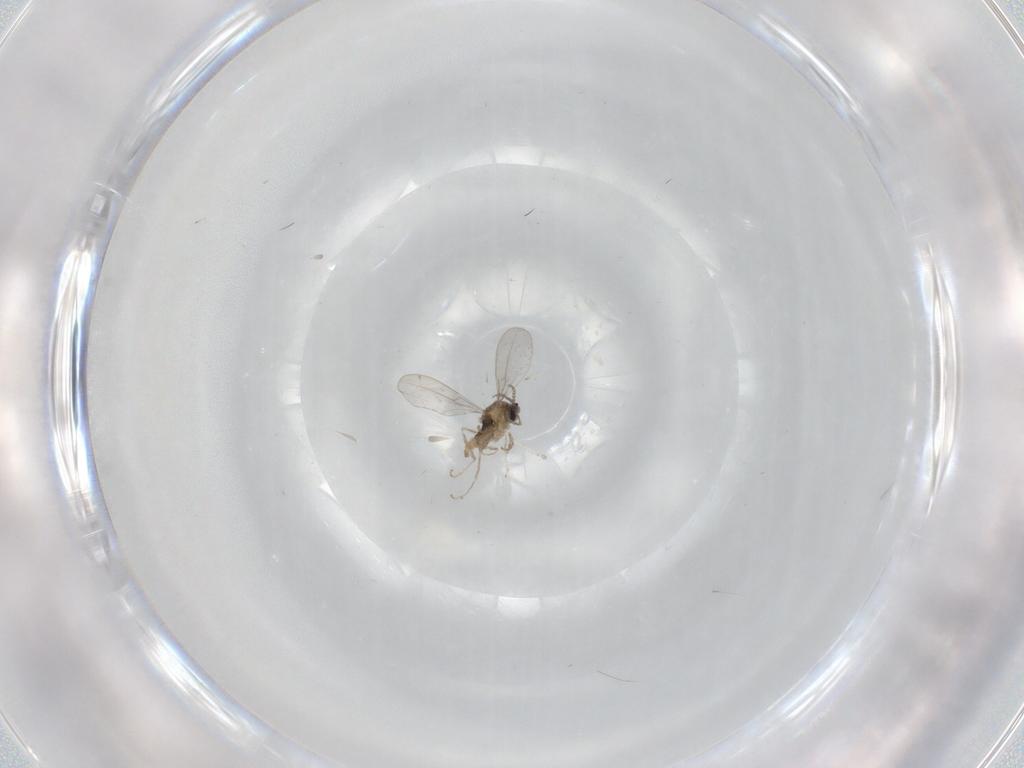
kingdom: Animalia
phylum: Arthropoda
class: Insecta
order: Diptera
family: Cecidomyiidae
